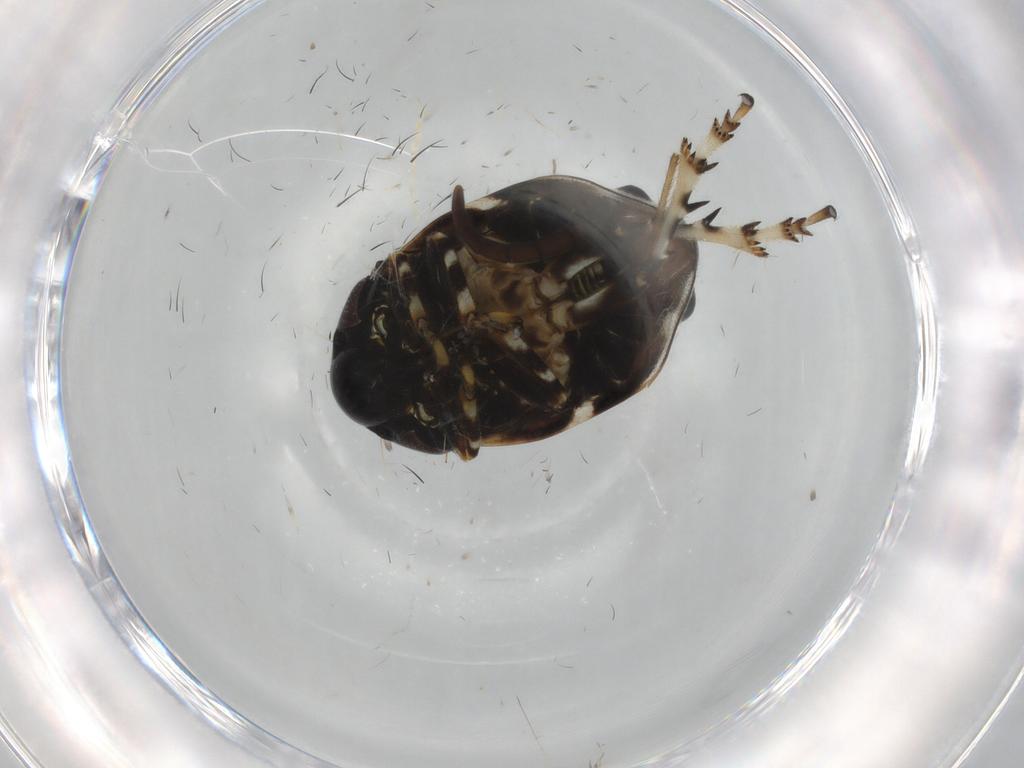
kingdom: Animalia
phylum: Arthropoda
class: Insecta
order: Hemiptera
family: Clastopteridae
